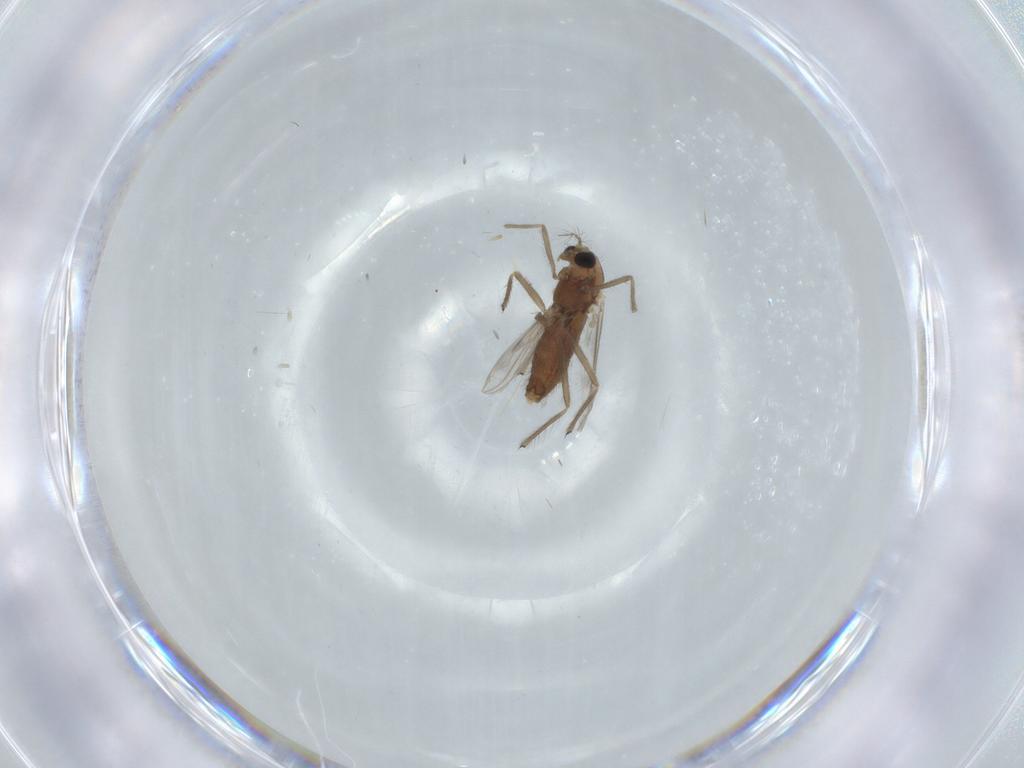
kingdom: Animalia
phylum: Arthropoda
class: Insecta
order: Diptera
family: Chironomidae
